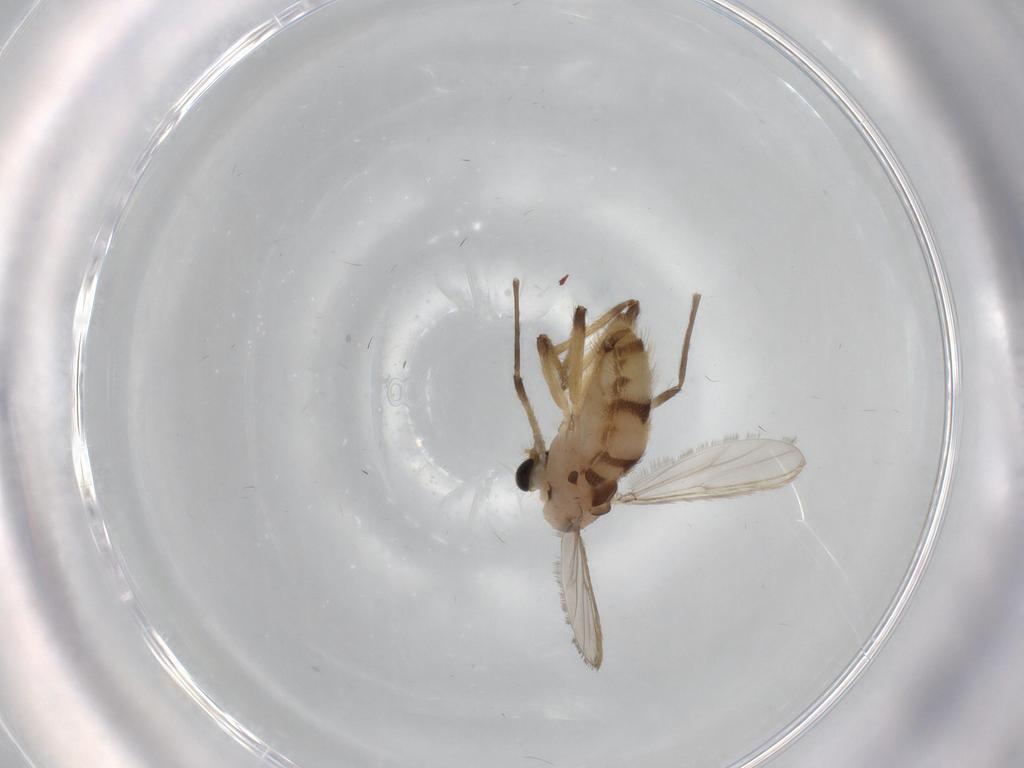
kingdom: Animalia
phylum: Arthropoda
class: Insecta
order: Diptera
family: Chironomidae
